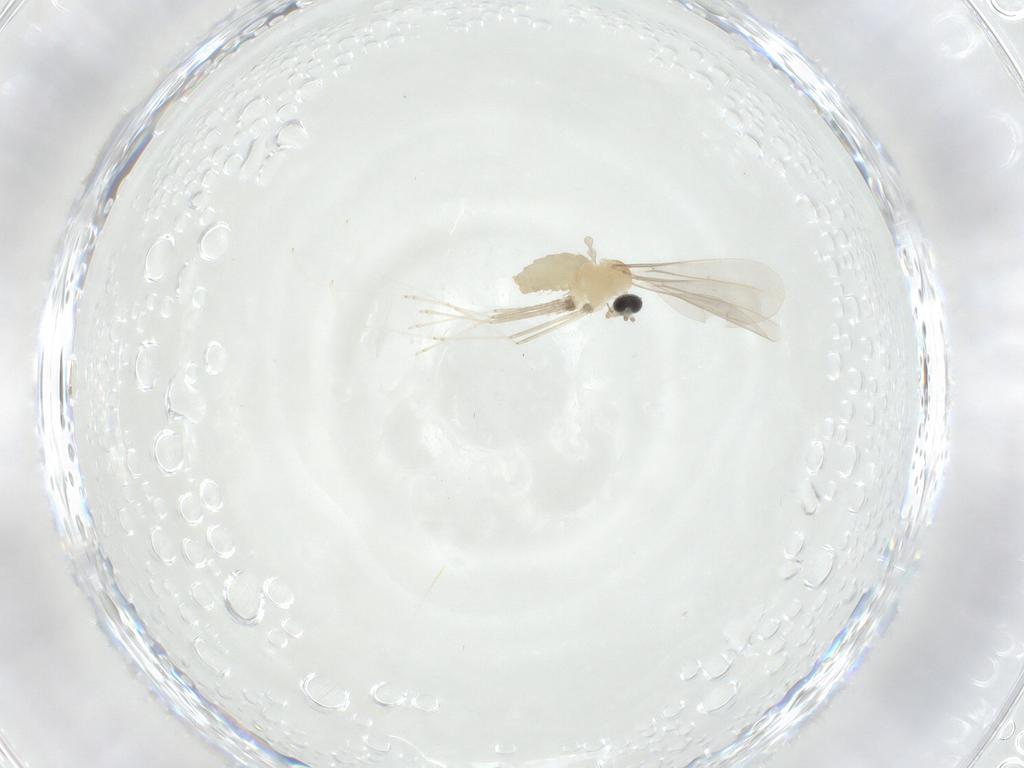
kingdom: Animalia
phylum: Arthropoda
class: Insecta
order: Diptera
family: Cecidomyiidae
